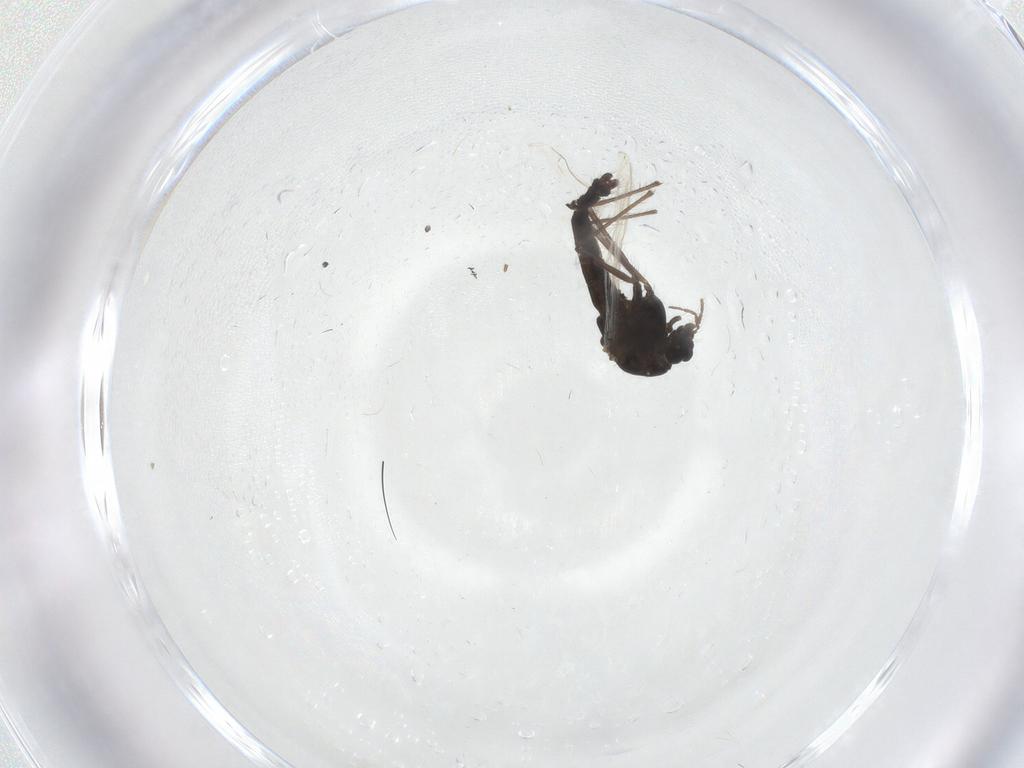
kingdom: Animalia
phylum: Arthropoda
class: Insecta
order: Diptera
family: Chironomidae
